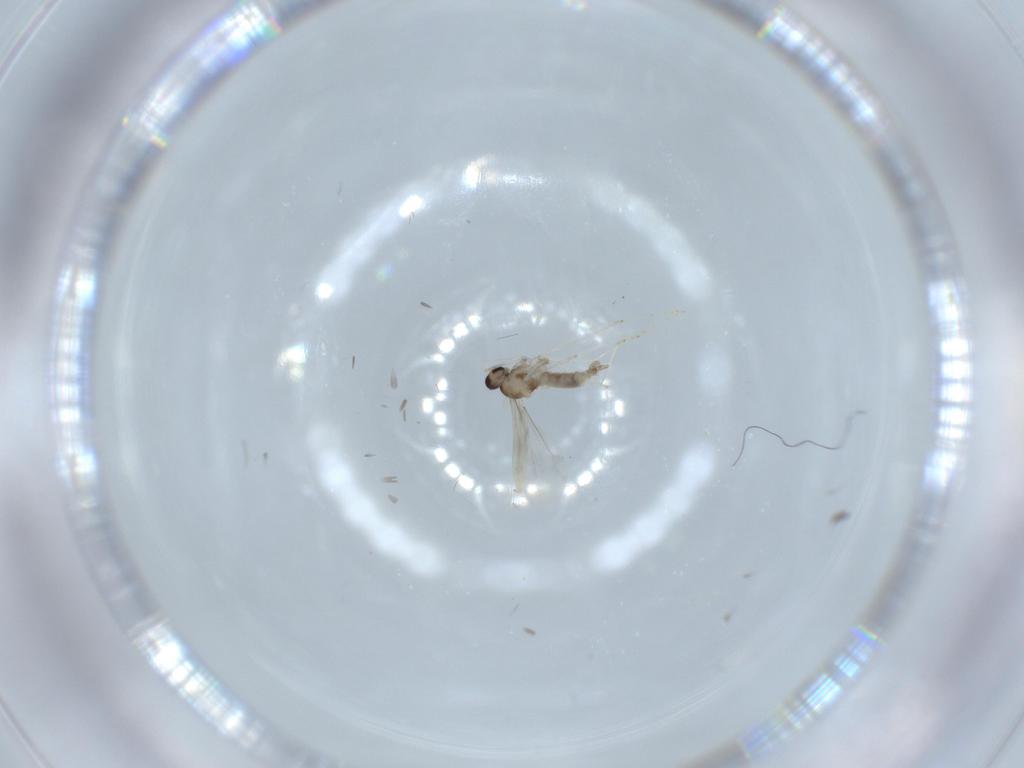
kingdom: Animalia
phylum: Arthropoda
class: Insecta
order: Diptera
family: Cecidomyiidae
